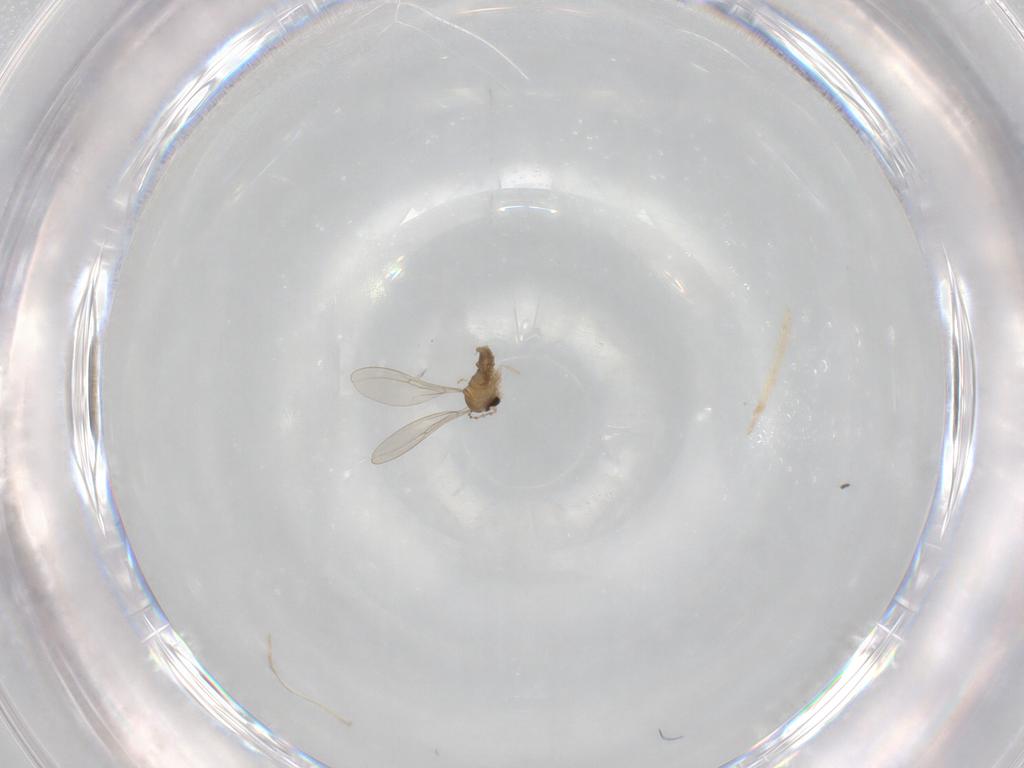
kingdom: Animalia
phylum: Arthropoda
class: Insecta
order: Diptera
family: Cecidomyiidae
